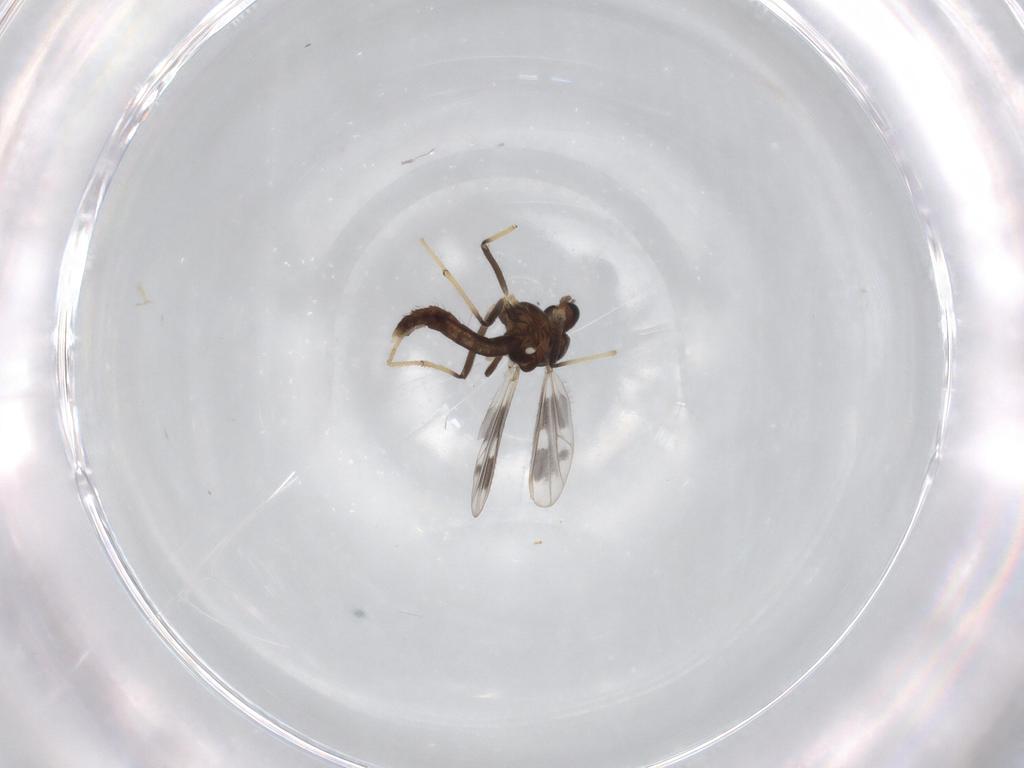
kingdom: Animalia
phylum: Arthropoda
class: Insecta
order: Diptera
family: Chironomidae
